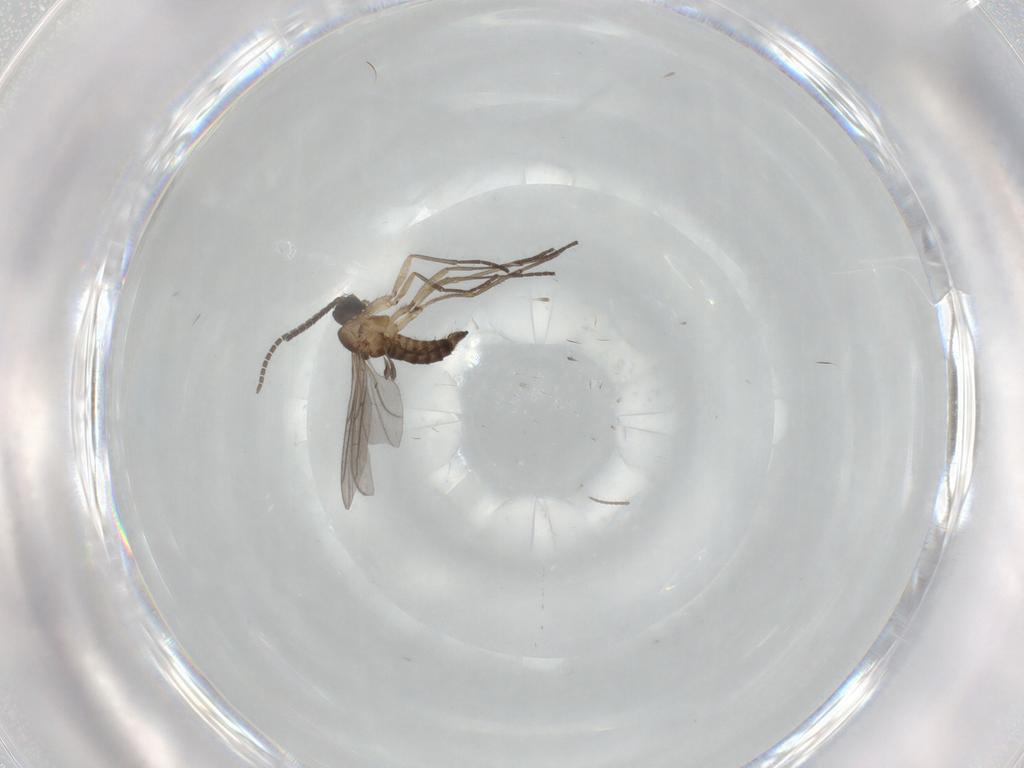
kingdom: Animalia
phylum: Arthropoda
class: Insecta
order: Diptera
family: Sciaridae
